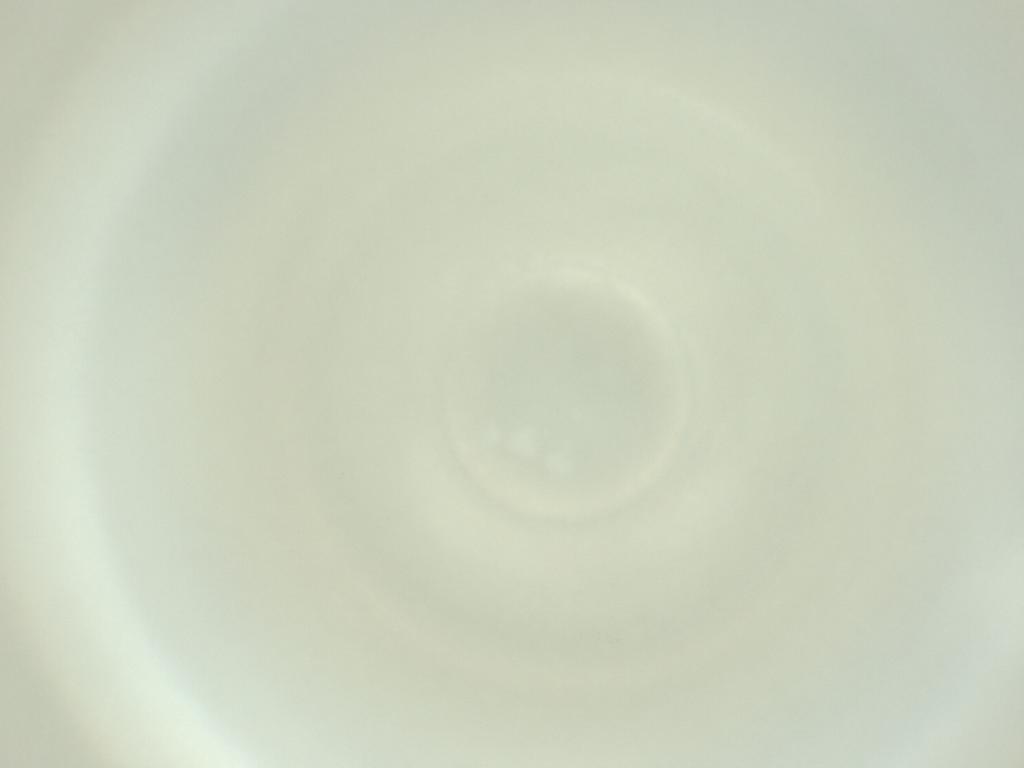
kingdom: Animalia
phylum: Arthropoda
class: Insecta
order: Diptera
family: Cecidomyiidae
